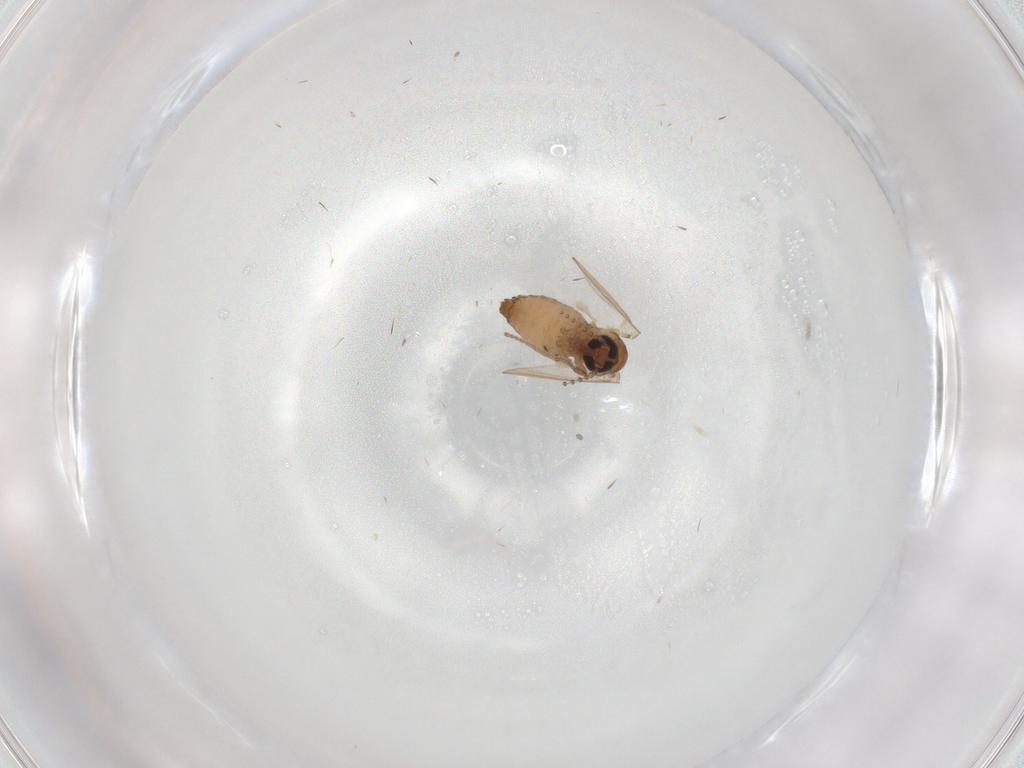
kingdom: Animalia
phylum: Arthropoda
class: Insecta
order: Diptera
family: Psychodidae
